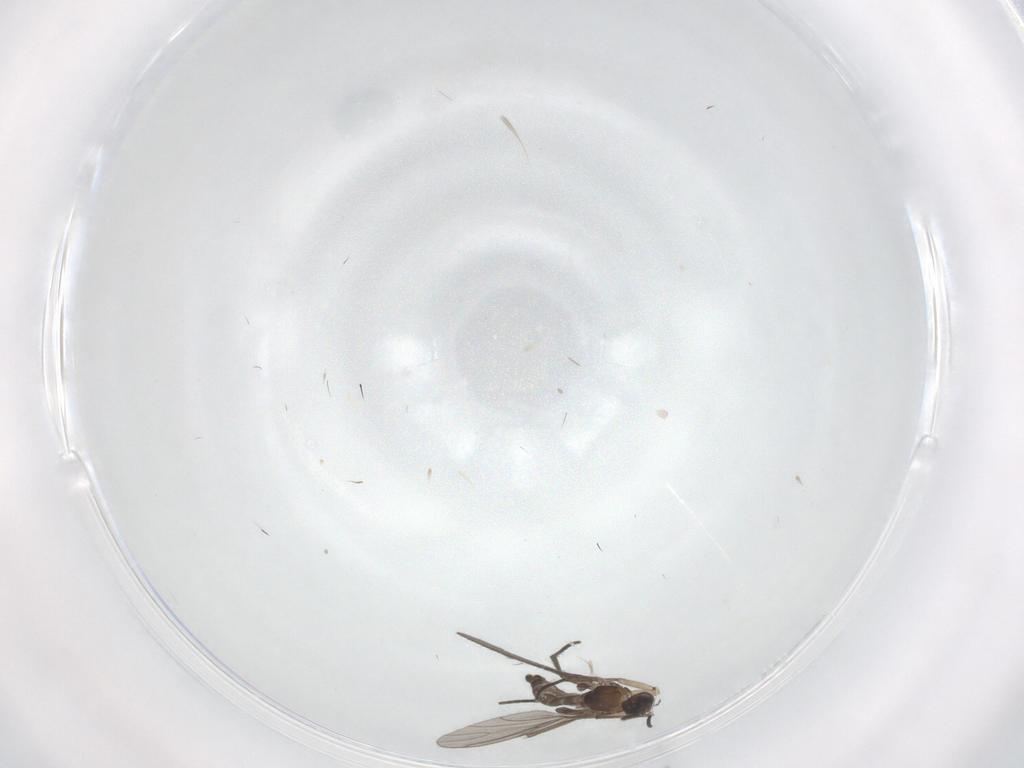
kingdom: Animalia
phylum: Arthropoda
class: Insecta
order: Diptera
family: Sciaridae
